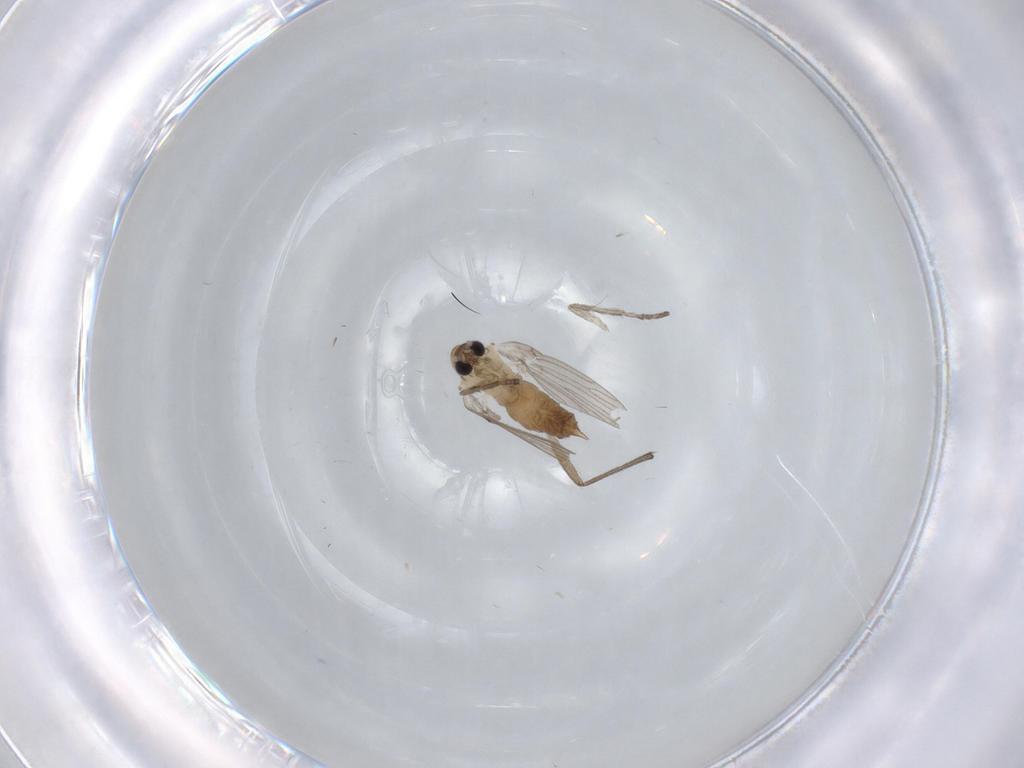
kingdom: Animalia
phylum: Arthropoda
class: Insecta
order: Diptera
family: Psychodidae
